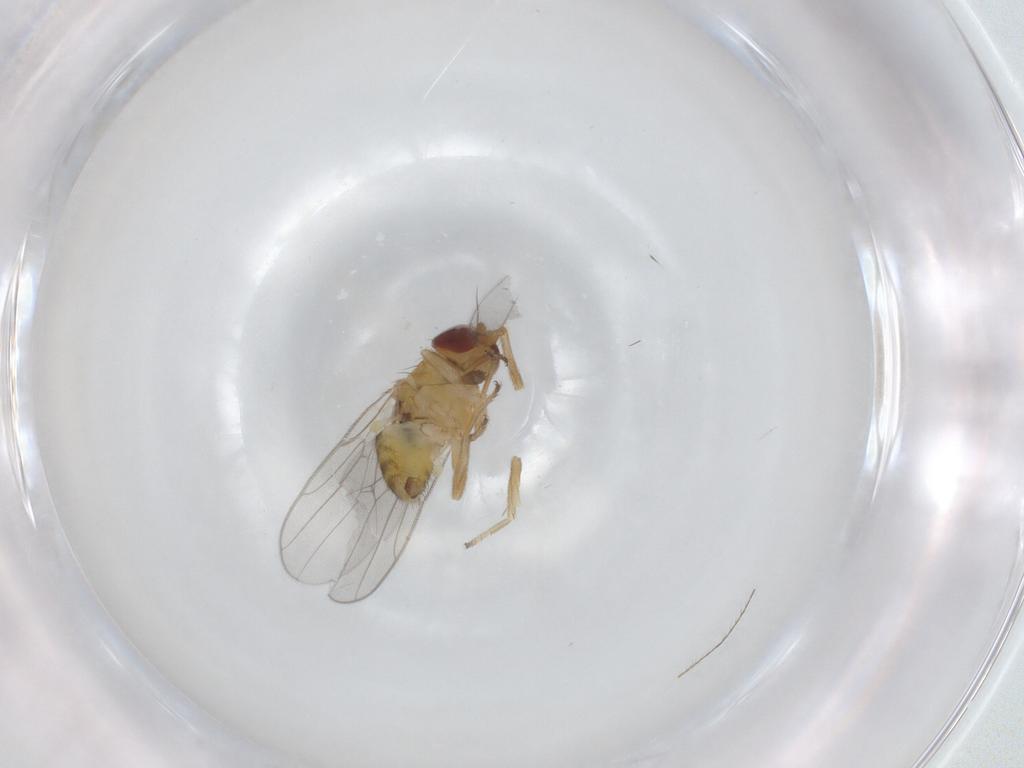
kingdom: Animalia
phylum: Arthropoda
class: Insecta
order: Diptera
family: Chloropidae
